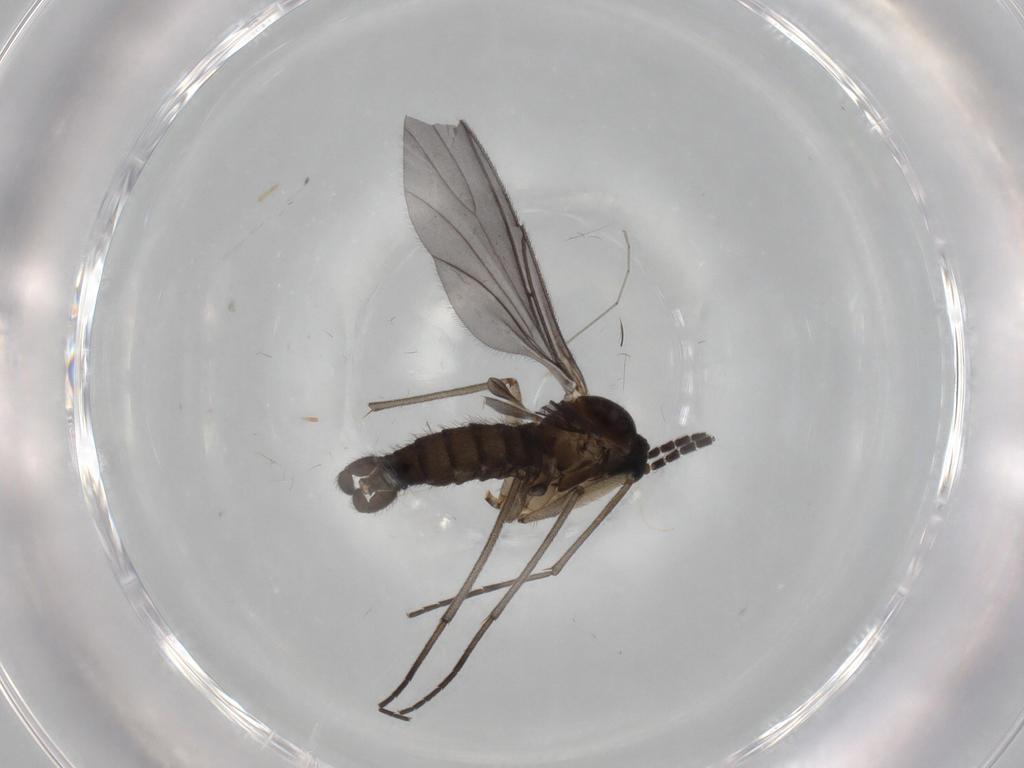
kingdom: Animalia
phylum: Arthropoda
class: Insecta
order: Diptera
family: Sciaridae
